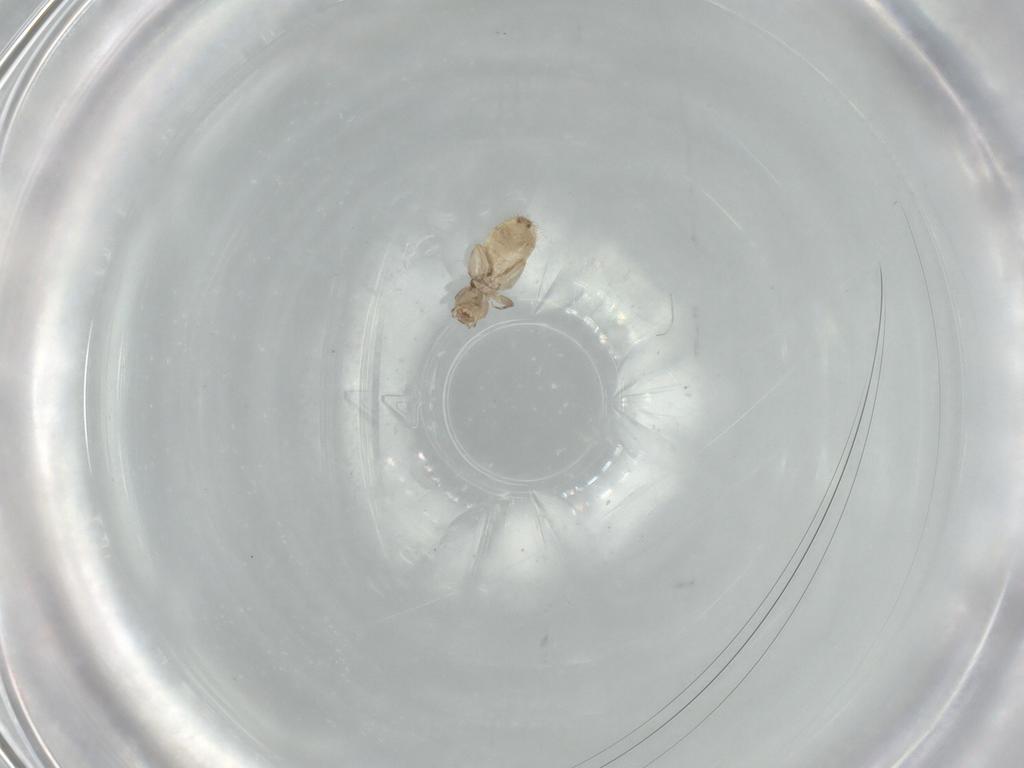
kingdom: Animalia
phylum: Arthropoda
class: Insecta
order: Psocodea
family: Liposcelididae
